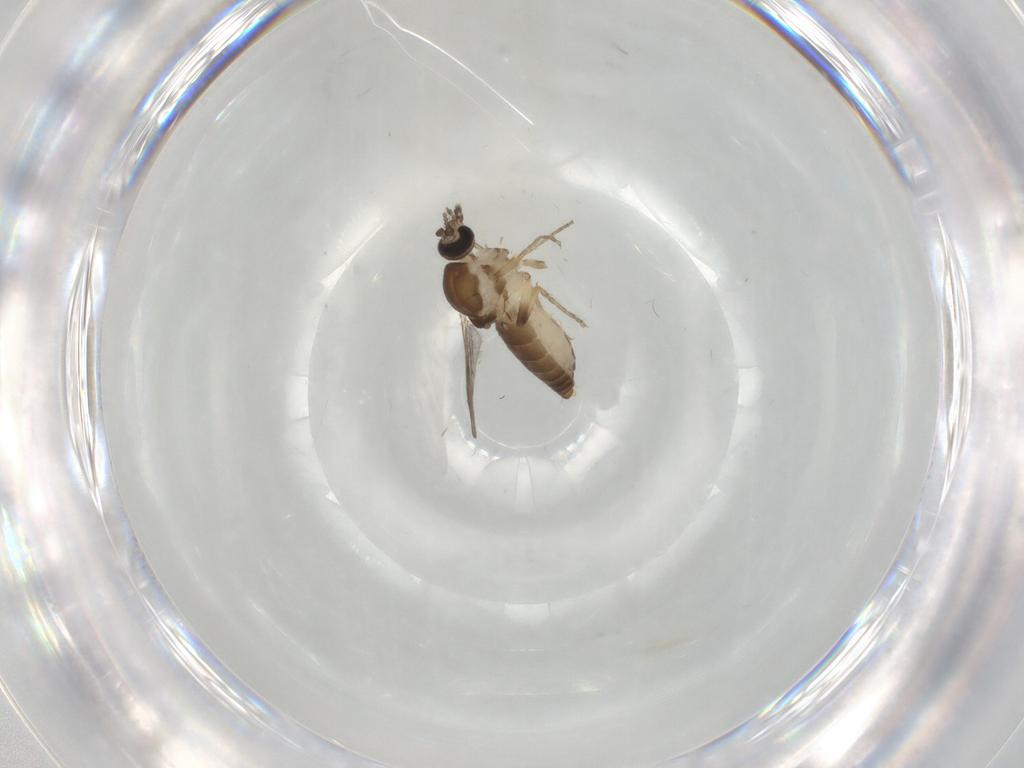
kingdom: Animalia
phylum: Arthropoda
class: Insecta
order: Diptera
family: Ceratopogonidae
